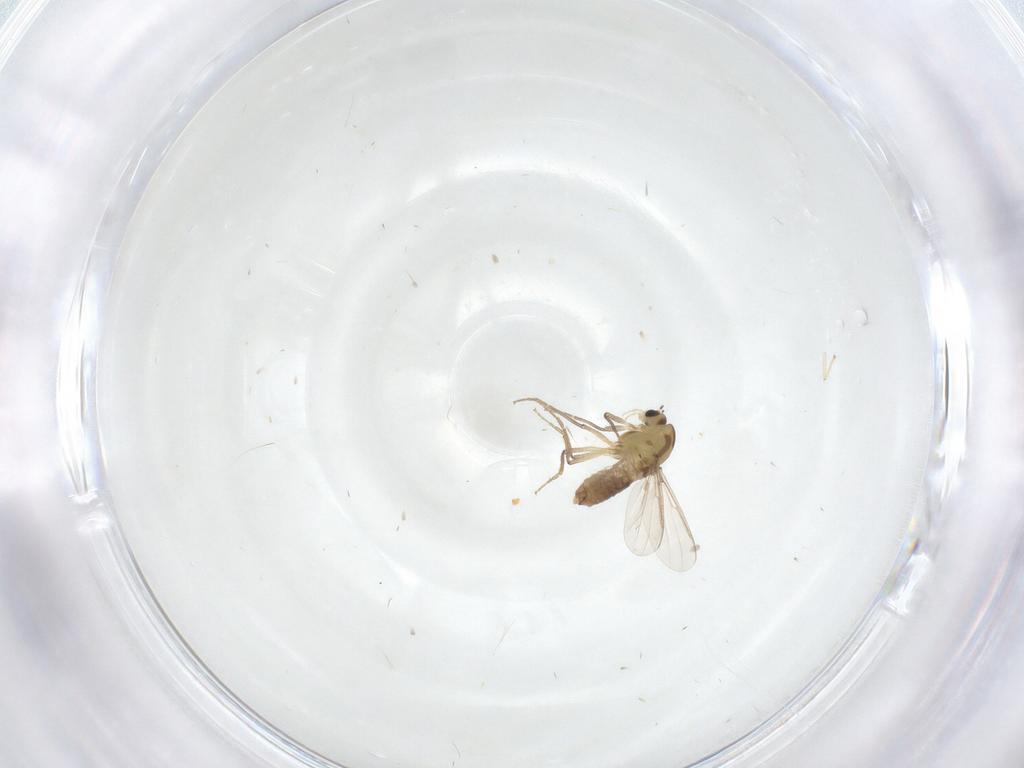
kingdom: Animalia
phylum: Arthropoda
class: Insecta
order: Diptera
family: Chironomidae
